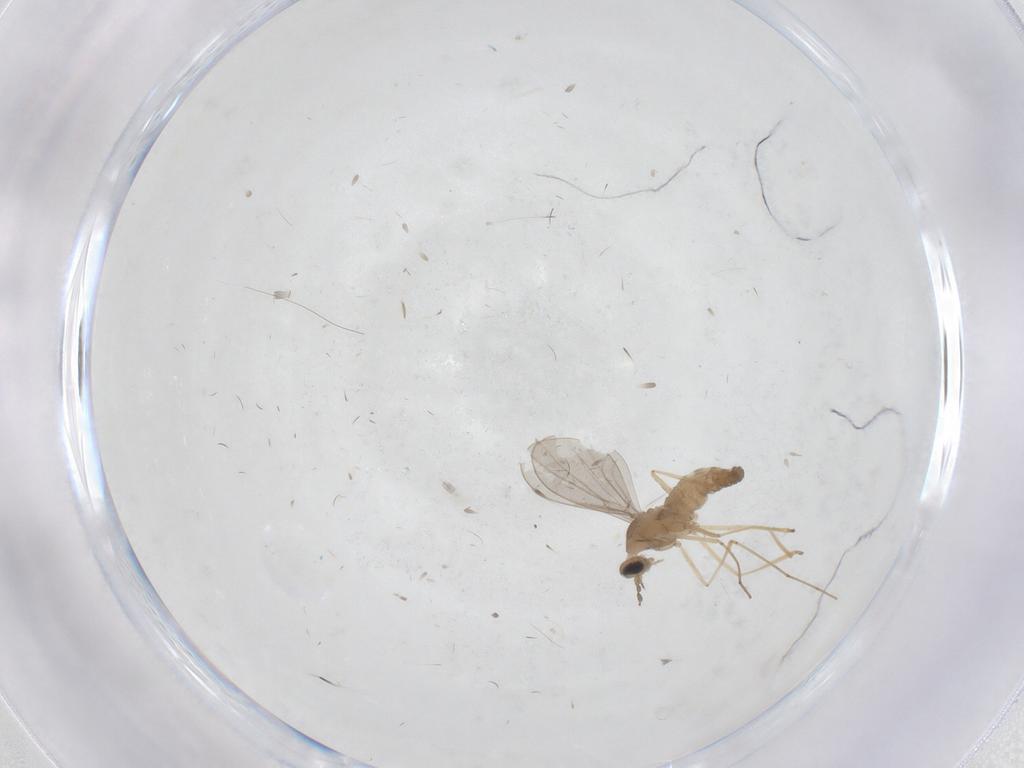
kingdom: Animalia
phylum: Arthropoda
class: Insecta
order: Diptera
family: Cecidomyiidae
